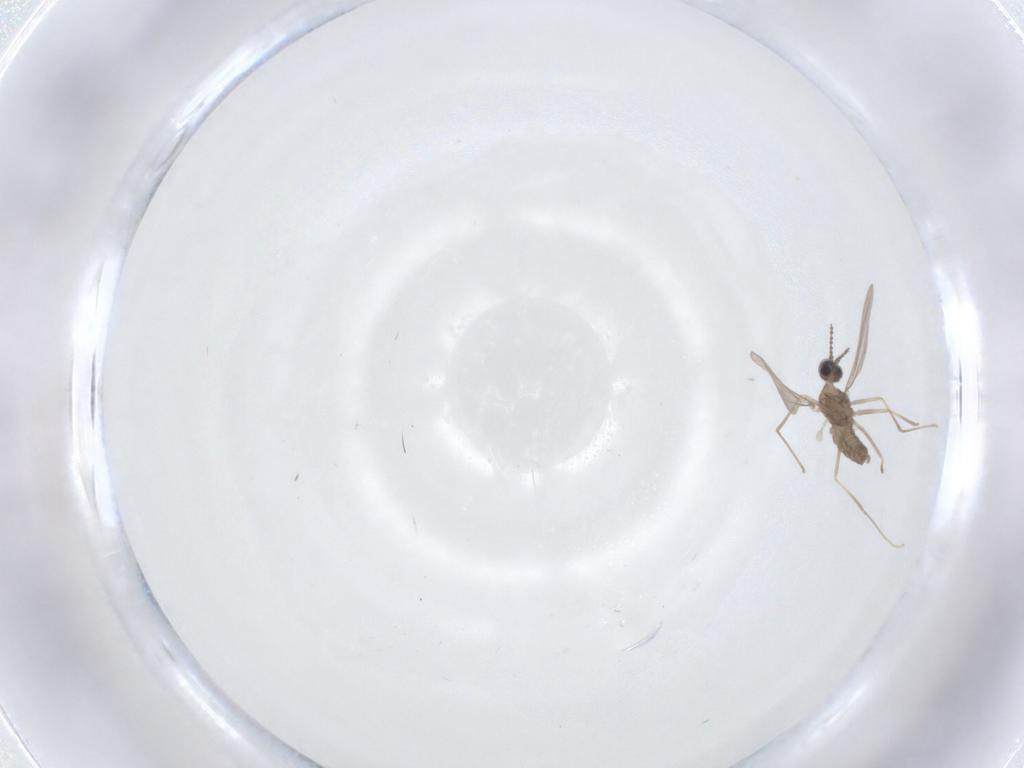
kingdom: Animalia
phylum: Arthropoda
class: Insecta
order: Diptera
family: Cecidomyiidae
